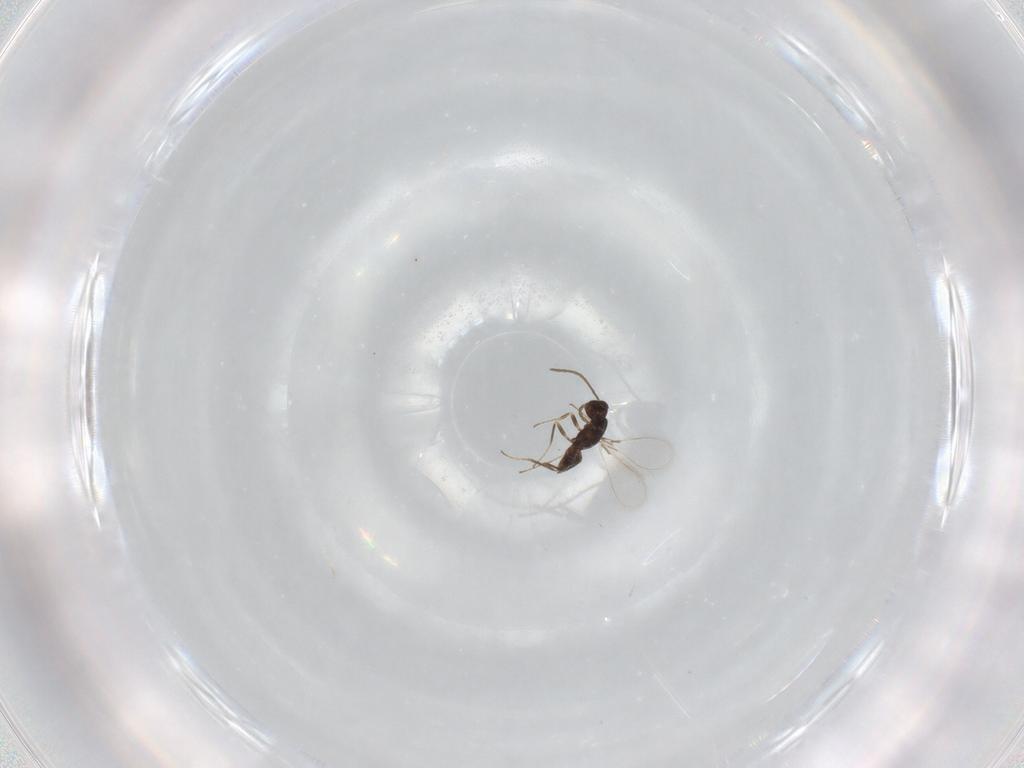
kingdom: Animalia
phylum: Arthropoda
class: Insecta
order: Hymenoptera
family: Mymaridae
